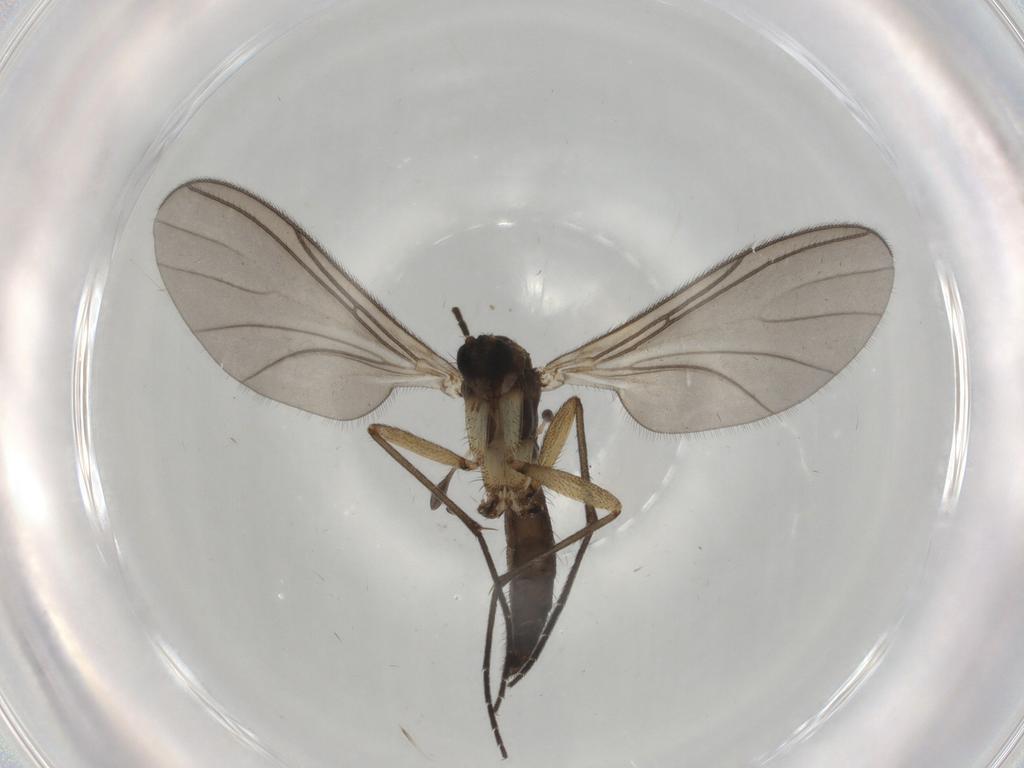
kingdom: Animalia
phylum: Arthropoda
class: Insecta
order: Diptera
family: Sciaridae
